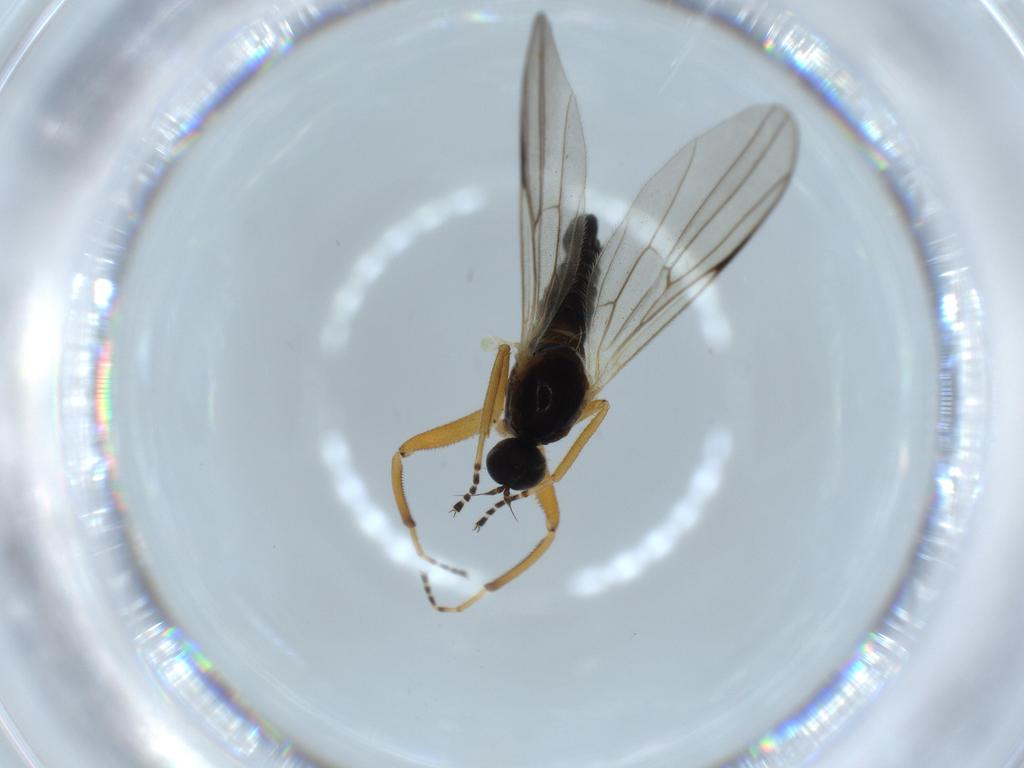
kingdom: Animalia
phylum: Arthropoda
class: Insecta
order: Diptera
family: Hybotidae
